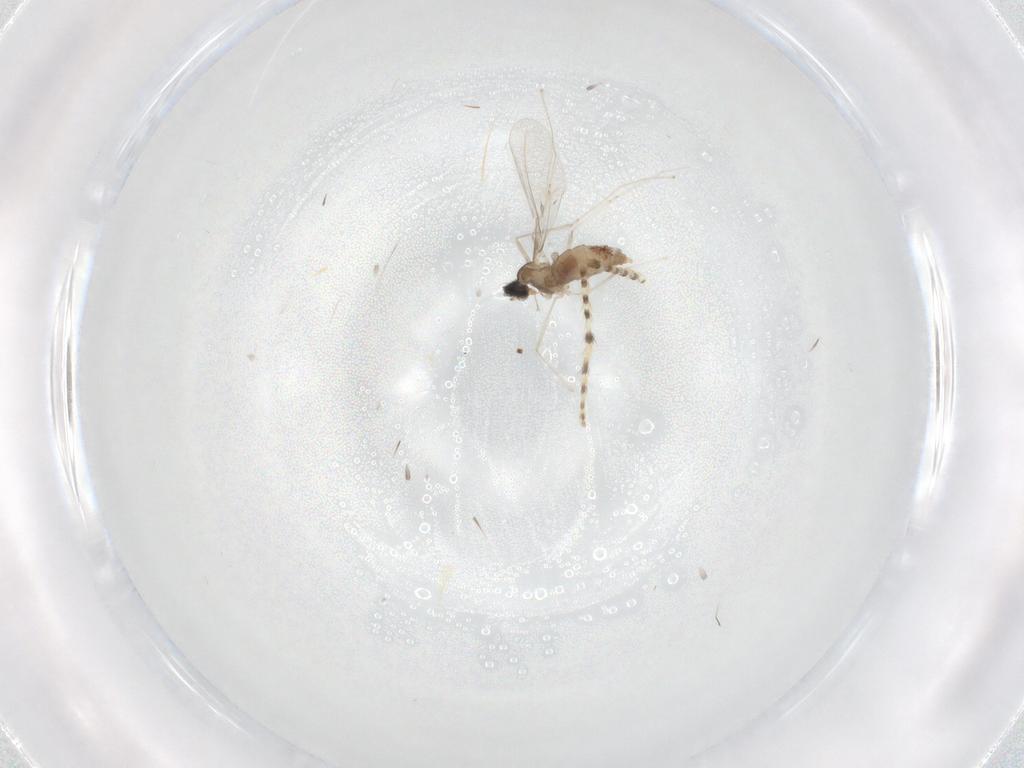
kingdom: Animalia
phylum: Arthropoda
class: Insecta
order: Diptera
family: Cecidomyiidae
